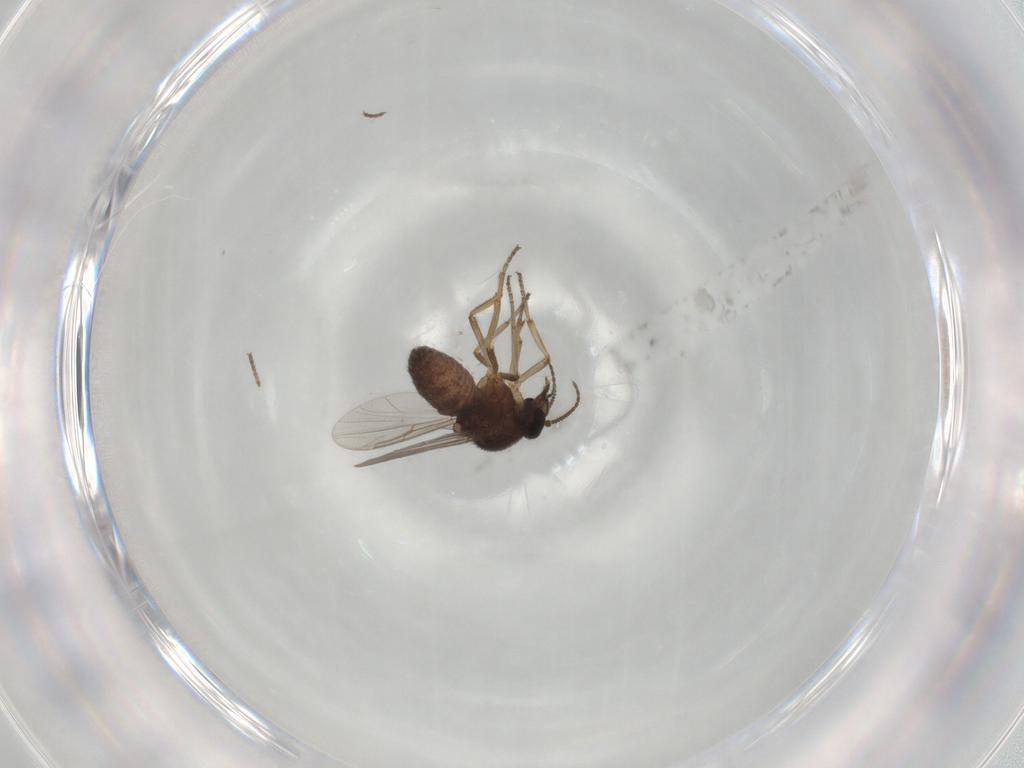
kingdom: Animalia
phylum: Arthropoda
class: Insecta
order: Diptera
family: Ceratopogonidae
